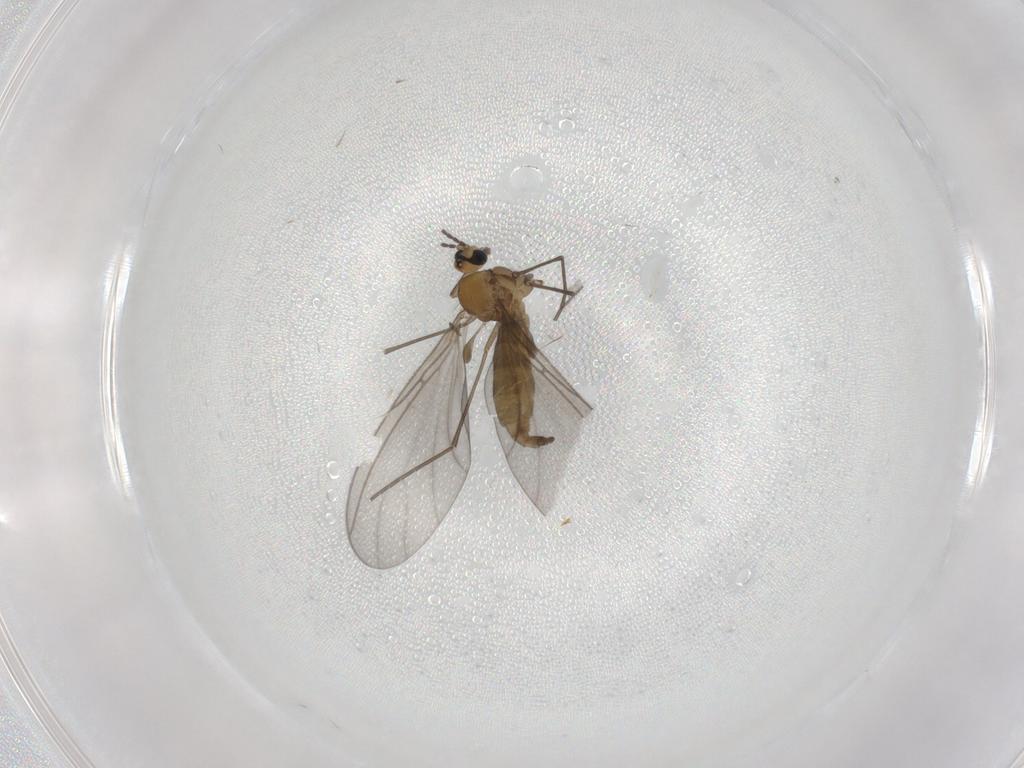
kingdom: Animalia
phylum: Arthropoda
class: Insecta
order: Diptera
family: Sciaridae
